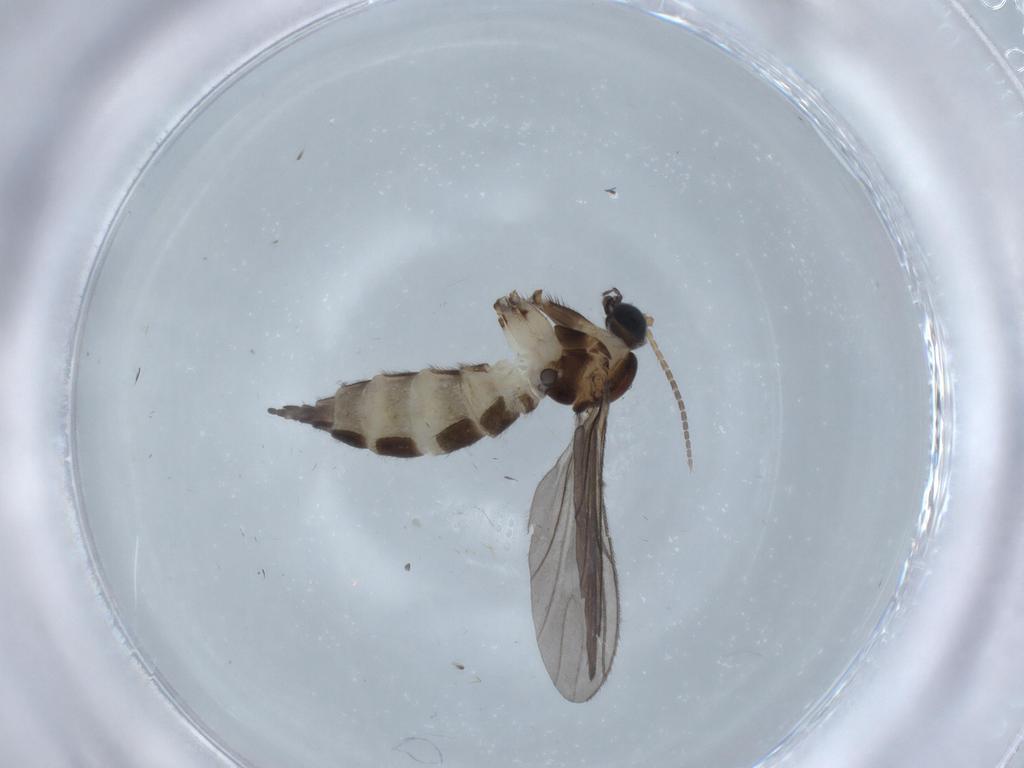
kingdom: Animalia
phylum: Arthropoda
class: Insecta
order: Diptera
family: Sciaridae
